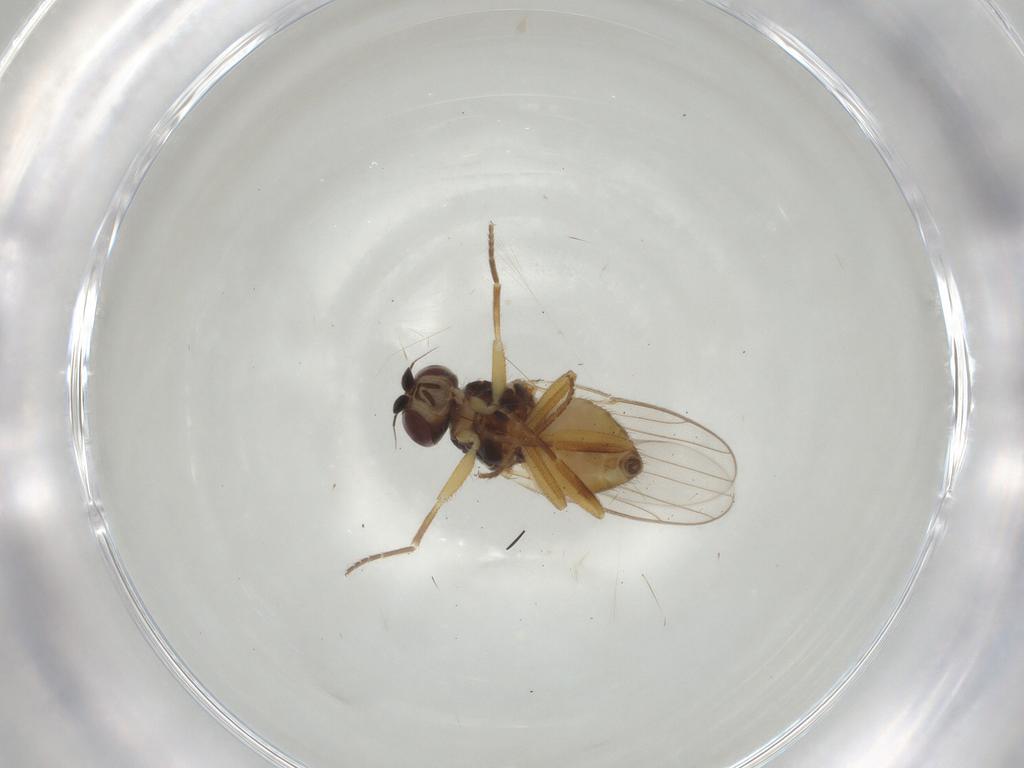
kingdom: Animalia
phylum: Arthropoda
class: Insecta
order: Diptera
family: Chloropidae
